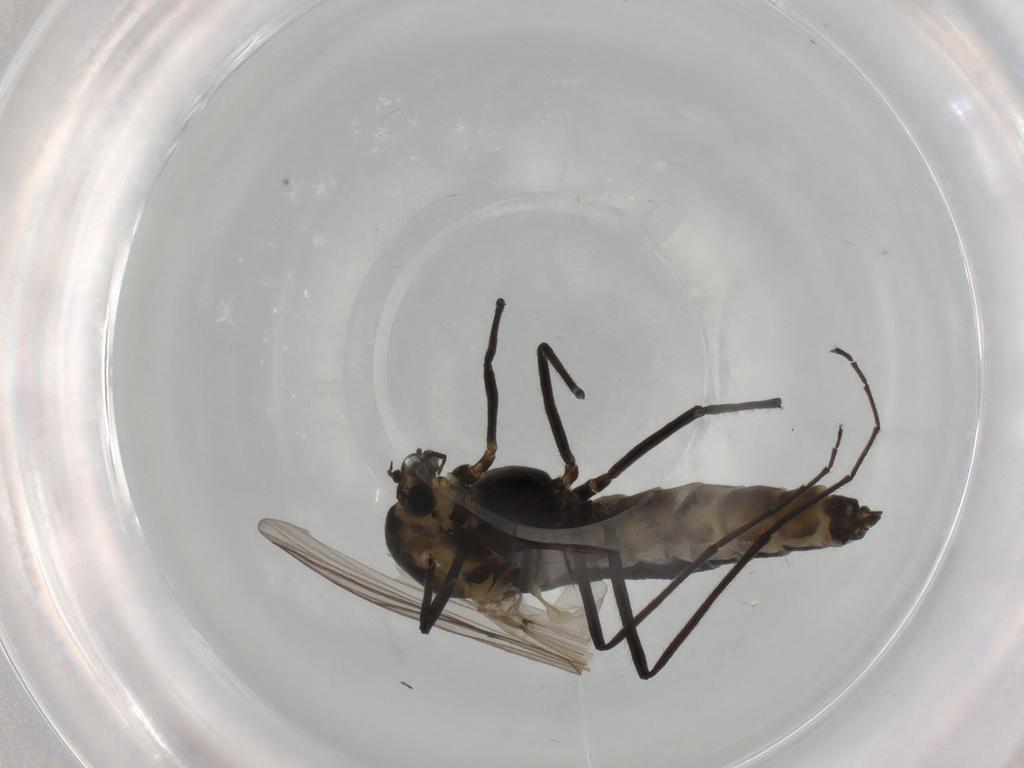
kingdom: Animalia
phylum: Arthropoda
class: Insecta
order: Diptera
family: Chironomidae
